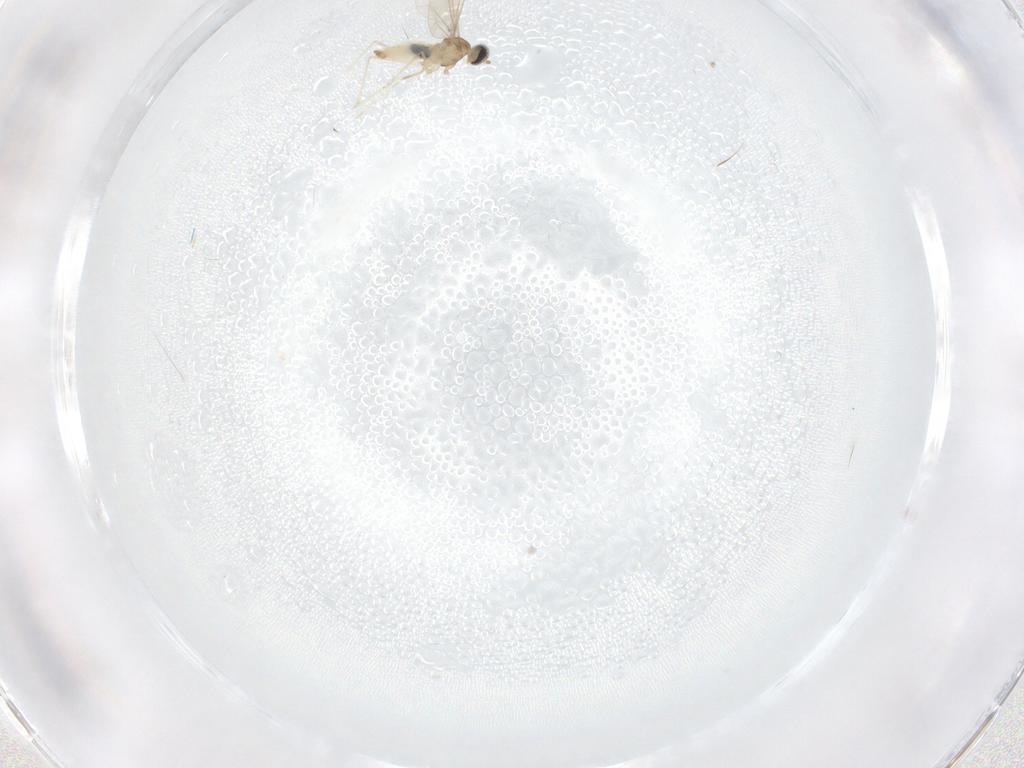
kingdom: Animalia
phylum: Arthropoda
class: Insecta
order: Diptera
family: Cecidomyiidae
